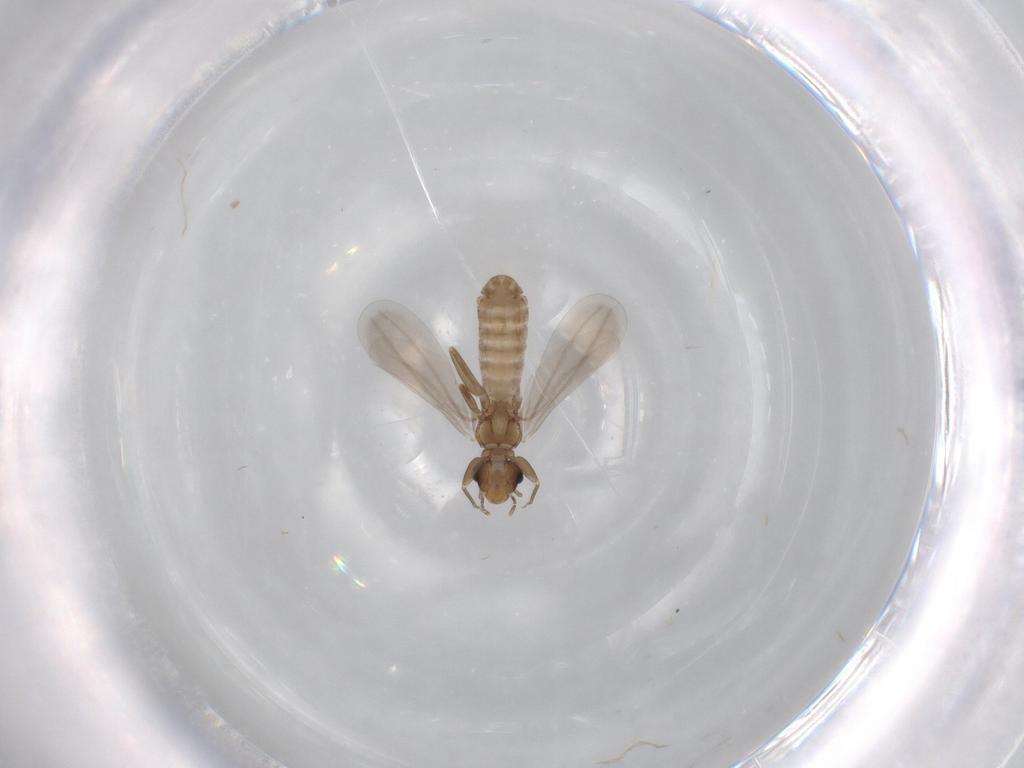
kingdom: Animalia
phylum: Arthropoda
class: Insecta
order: Psocodea
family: Liposcelididae
